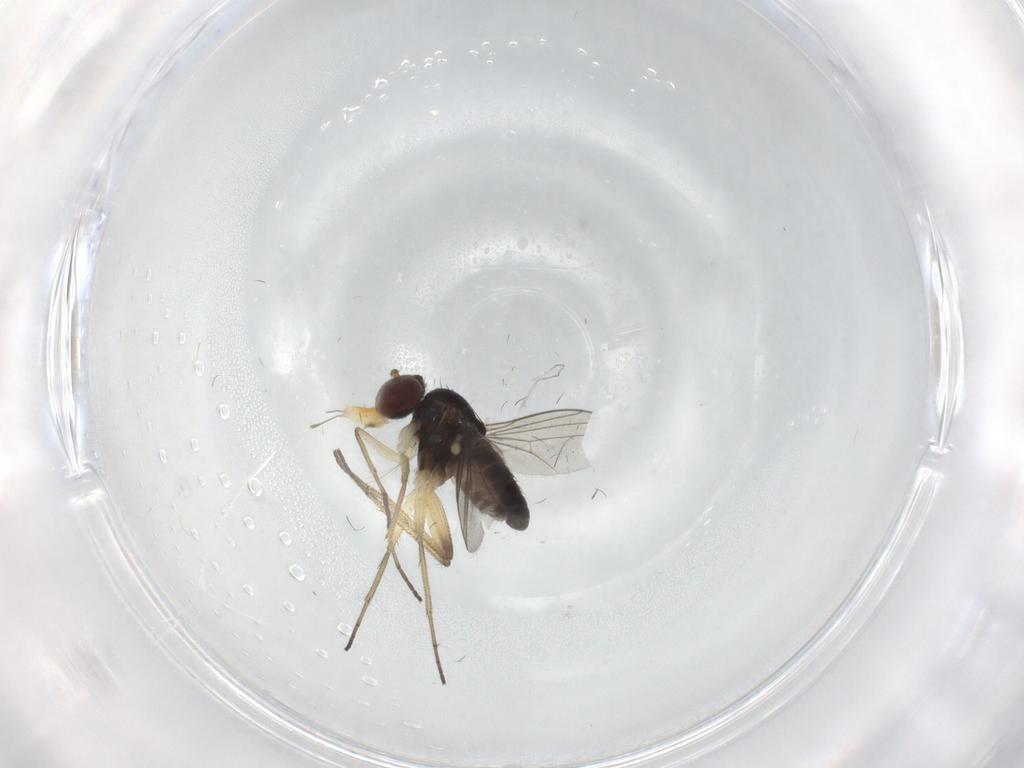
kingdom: Animalia
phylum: Arthropoda
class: Insecta
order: Diptera
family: Dolichopodidae
